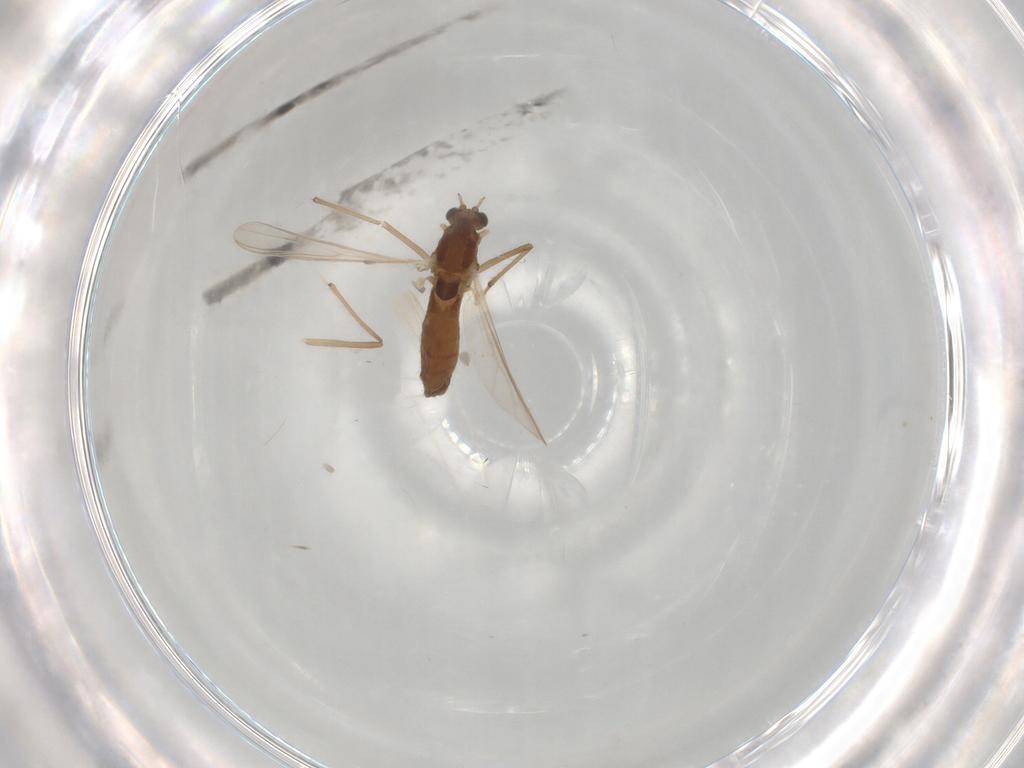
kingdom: Animalia
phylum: Arthropoda
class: Insecta
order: Diptera
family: Chironomidae
